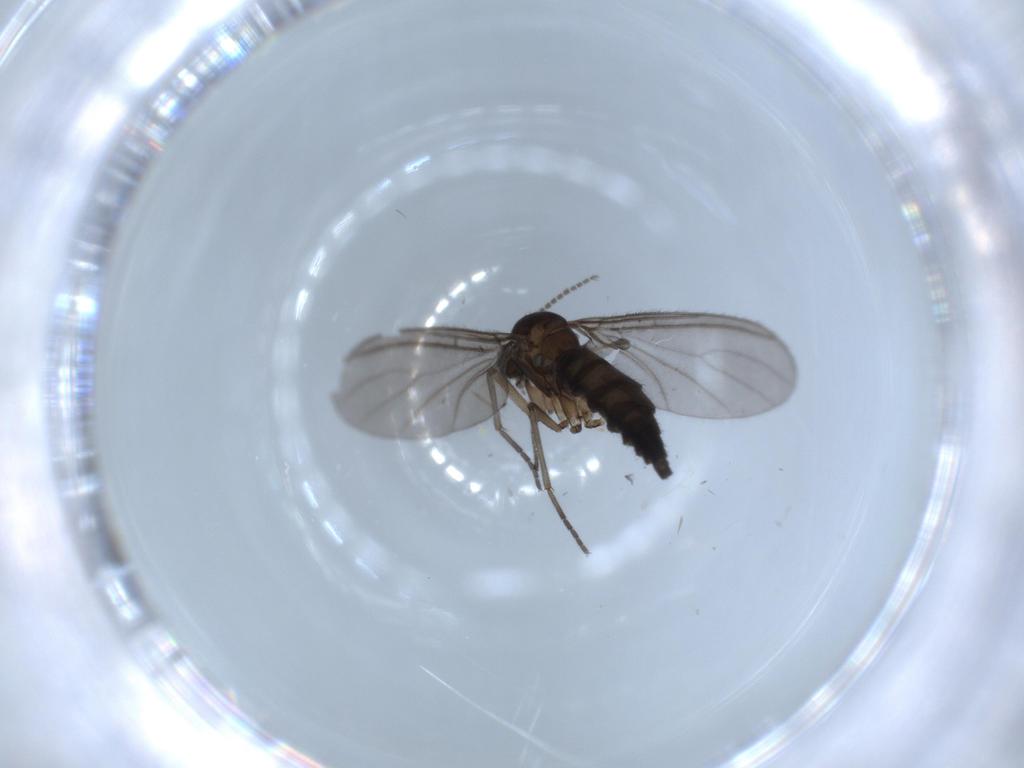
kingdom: Animalia
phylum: Arthropoda
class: Insecta
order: Diptera
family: Sciaridae
